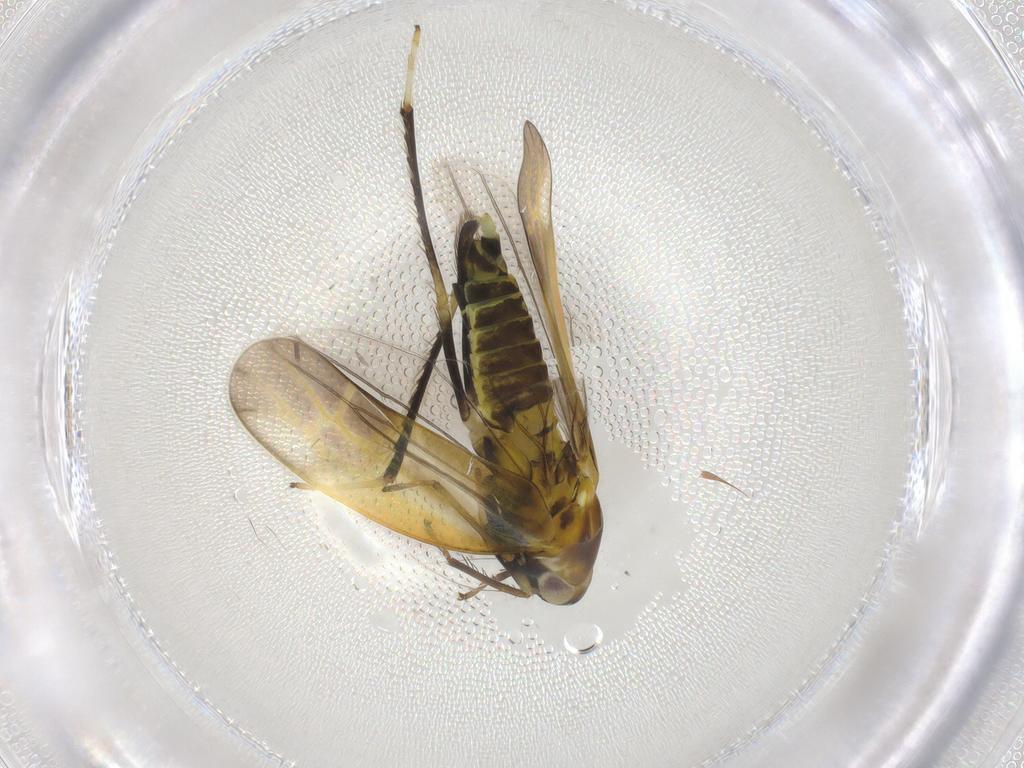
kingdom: Animalia
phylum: Arthropoda
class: Insecta
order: Hemiptera
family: Cicadellidae
